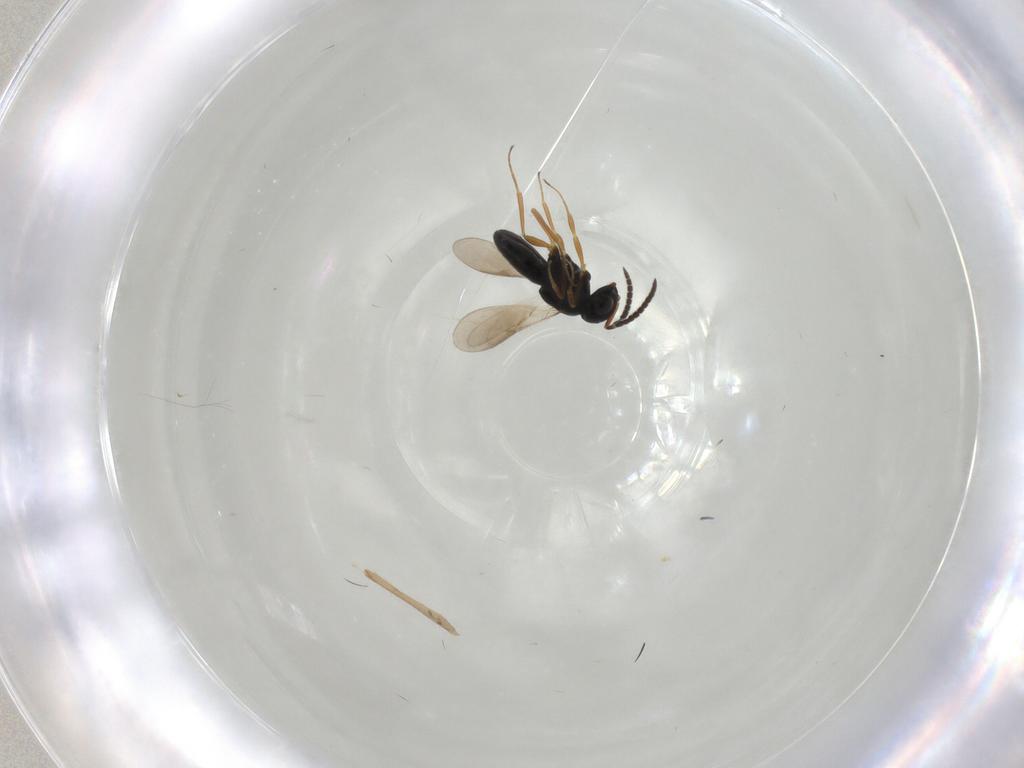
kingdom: Animalia
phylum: Arthropoda
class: Insecta
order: Hymenoptera
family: Scelionidae
